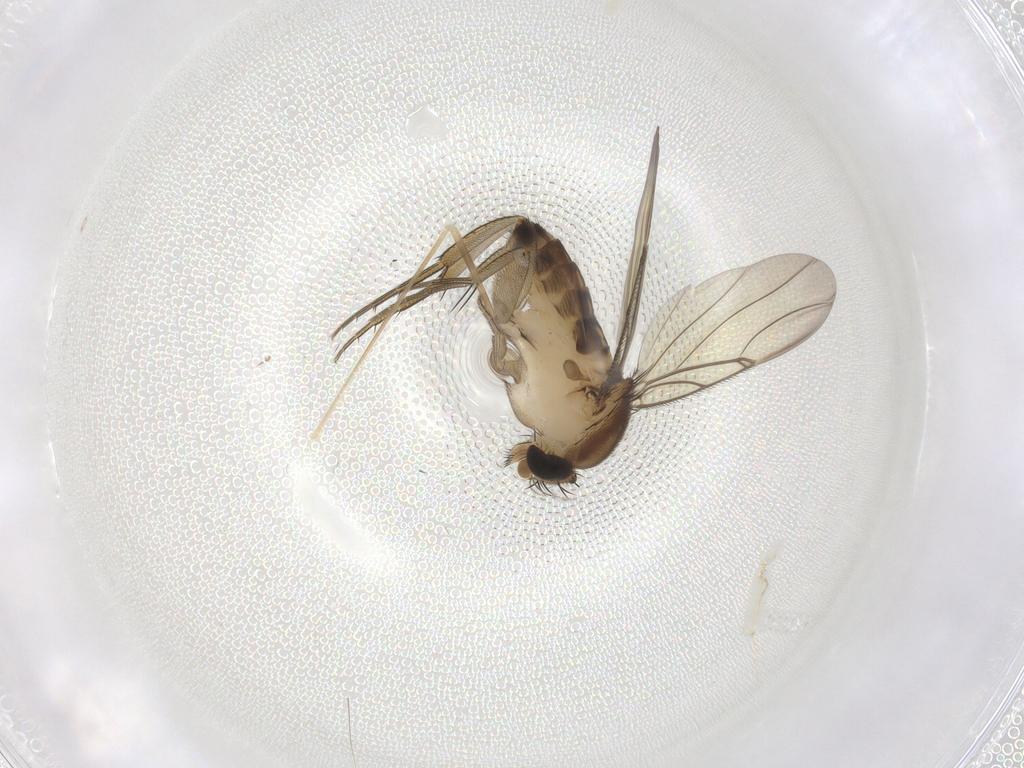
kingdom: Animalia
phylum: Arthropoda
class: Insecta
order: Diptera
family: Phoridae
